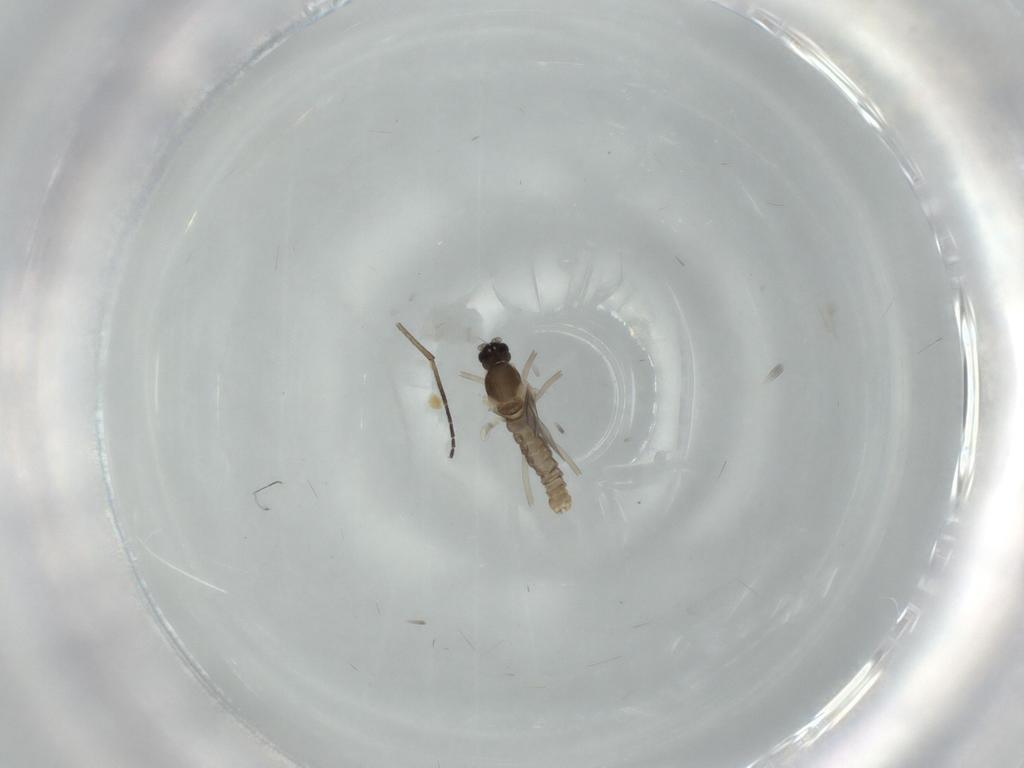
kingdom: Animalia
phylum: Arthropoda
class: Insecta
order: Diptera
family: Cecidomyiidae
